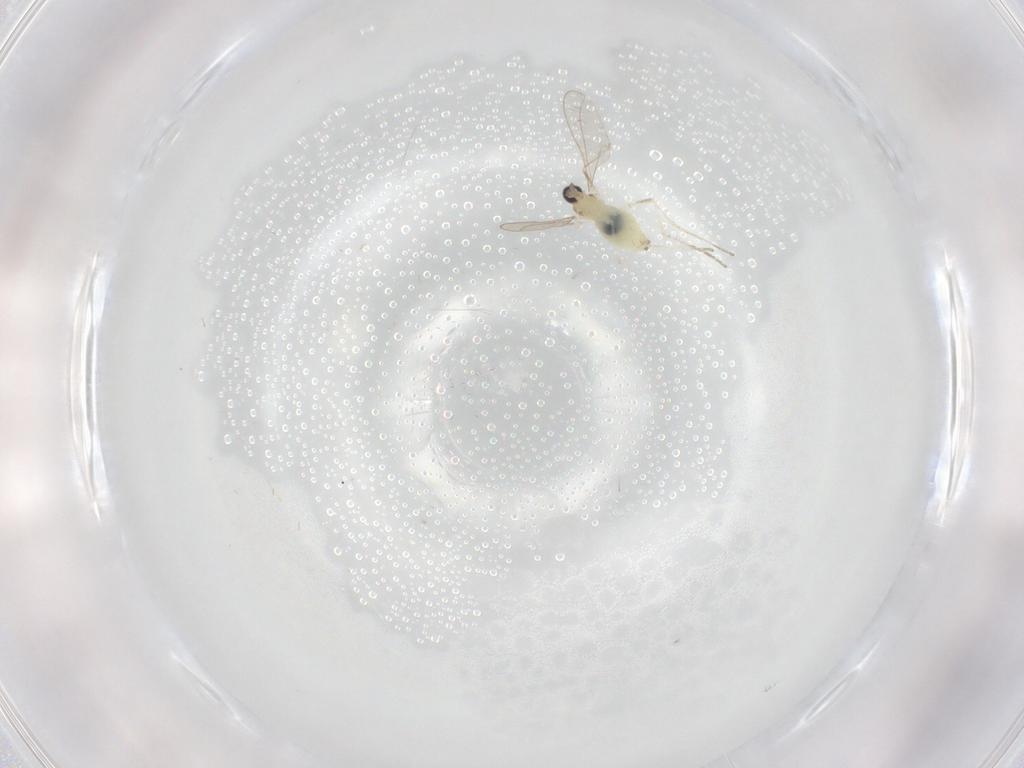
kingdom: Animalia
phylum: Arthropoda
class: Insecta
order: Diptera
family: Cecidomyiidae
